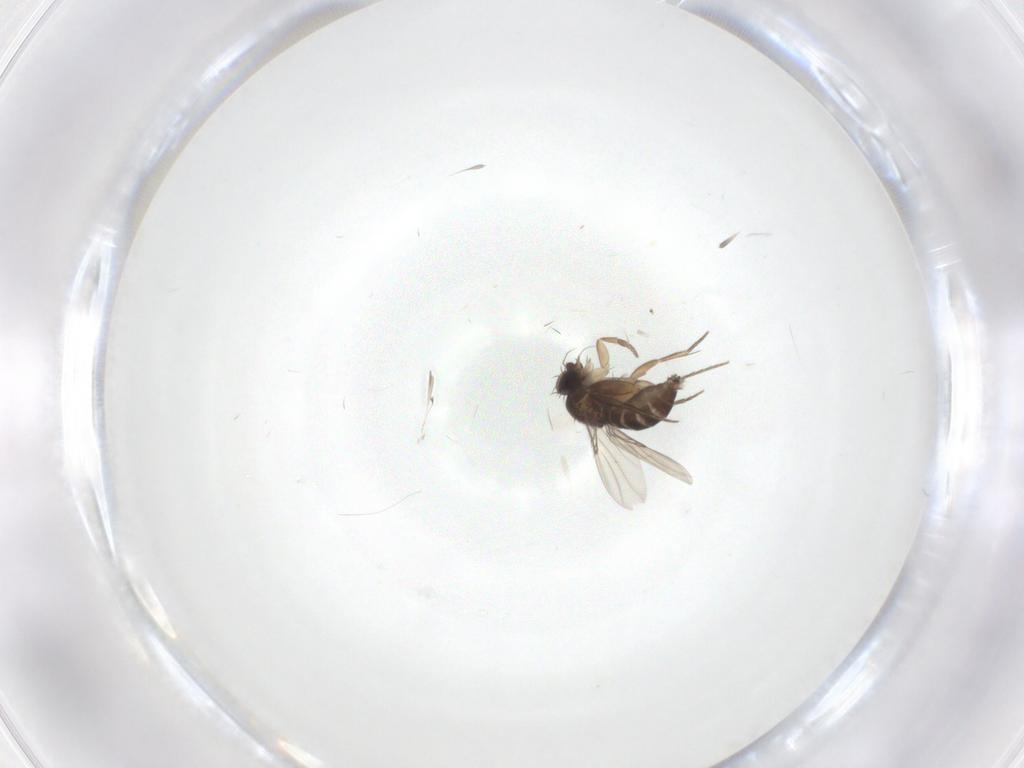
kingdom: Animalia
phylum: Arthropoda
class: Insecta
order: Diptera
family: Phoridae
